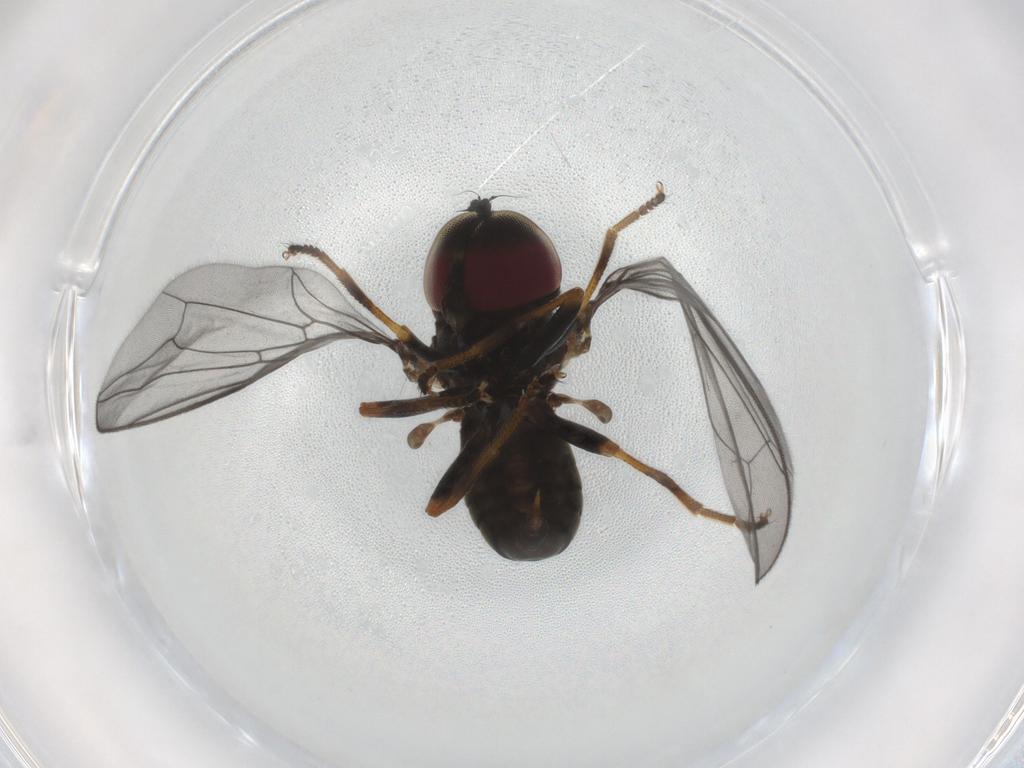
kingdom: Animalia
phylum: Arthropoda
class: Insecta
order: Diptera
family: Pipunculidae
